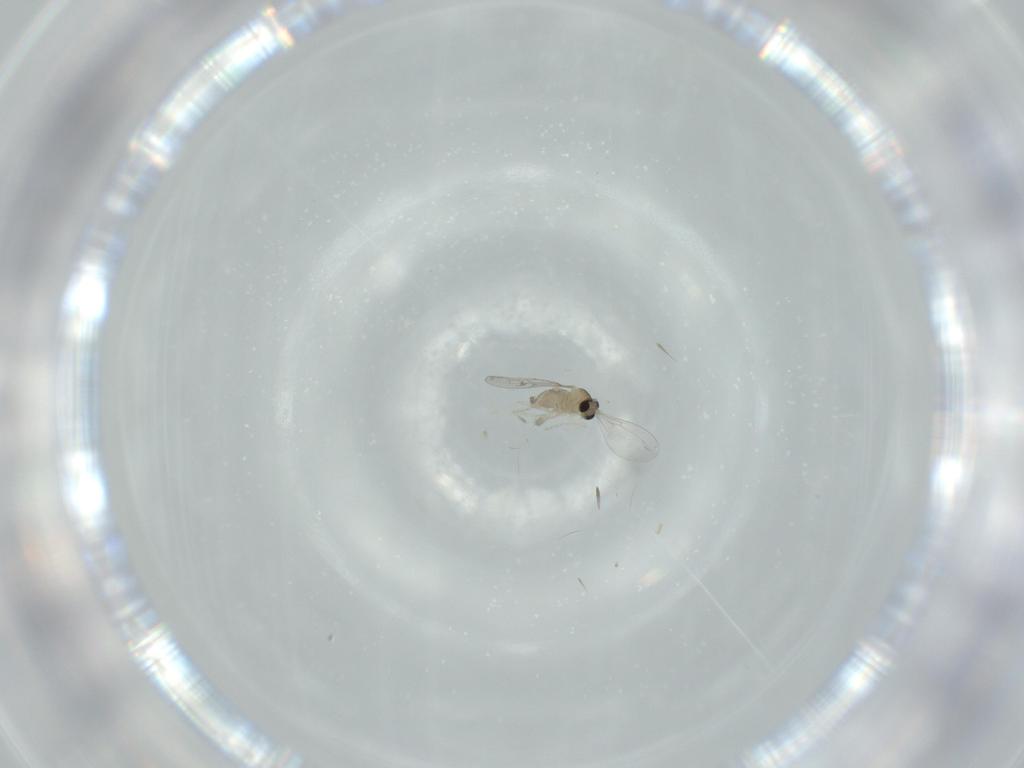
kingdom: Animalia
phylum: Arthropoda
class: Insecta
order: Diptera
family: Cecidomyiidae
